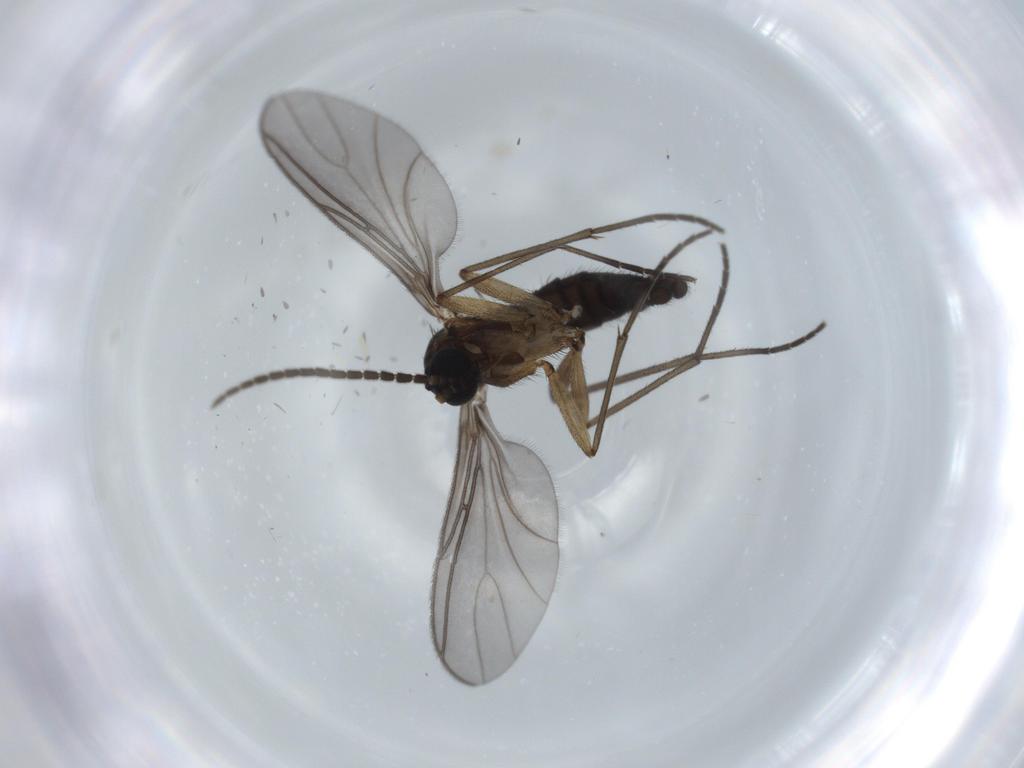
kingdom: Animalia
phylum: Arthropoda
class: Insecta
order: Diptera
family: Sciaridae
